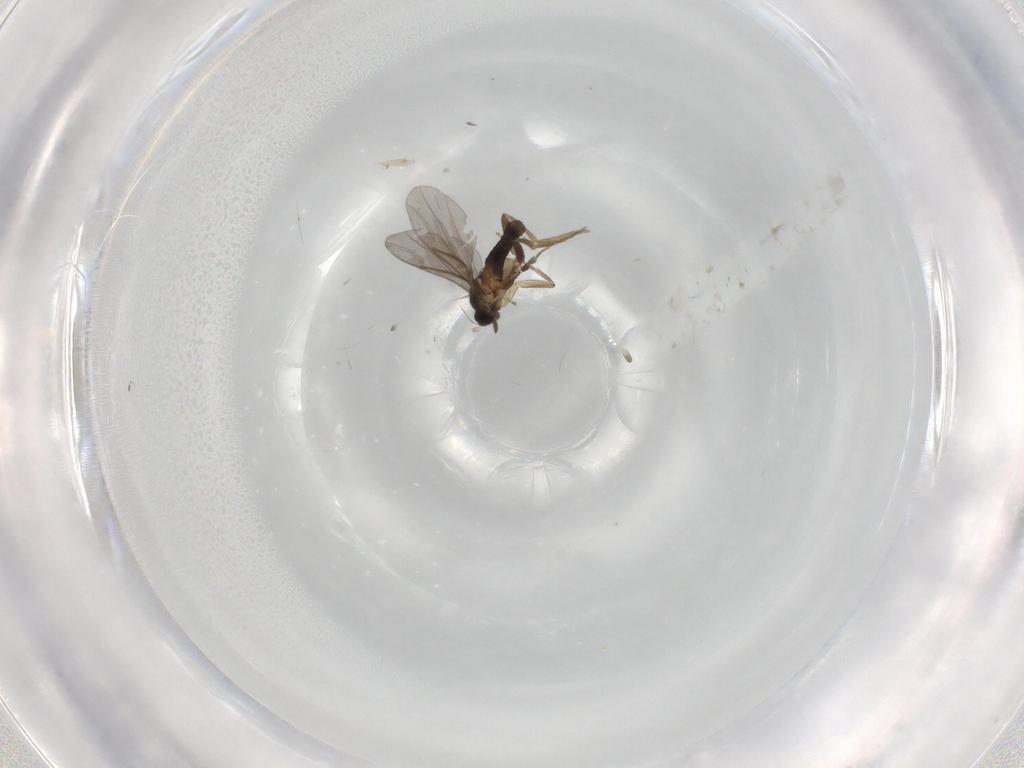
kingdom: Animalia
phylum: Arthropoda
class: Insecta
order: Diptera
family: Cecidomyiidae
